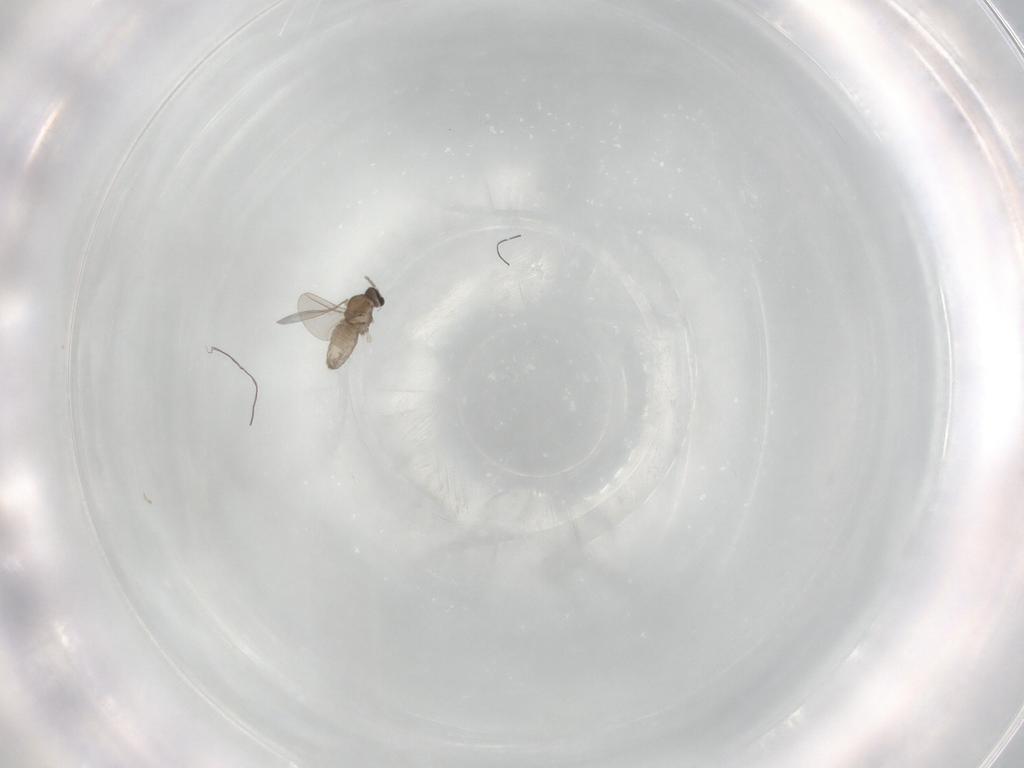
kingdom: Animalia
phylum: Arthropoda
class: Insecta
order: Diptera
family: Cecidomyiidae
